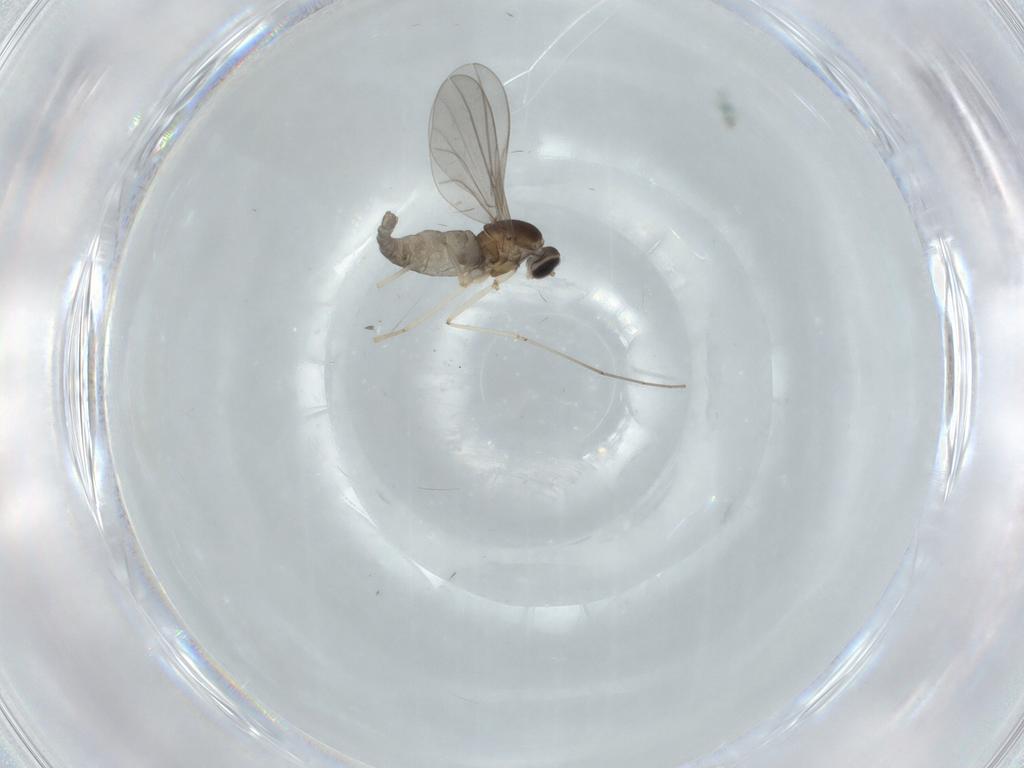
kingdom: Animalia
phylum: Arthropoda
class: Insecta
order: Diptera
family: Cecidomyiidae
